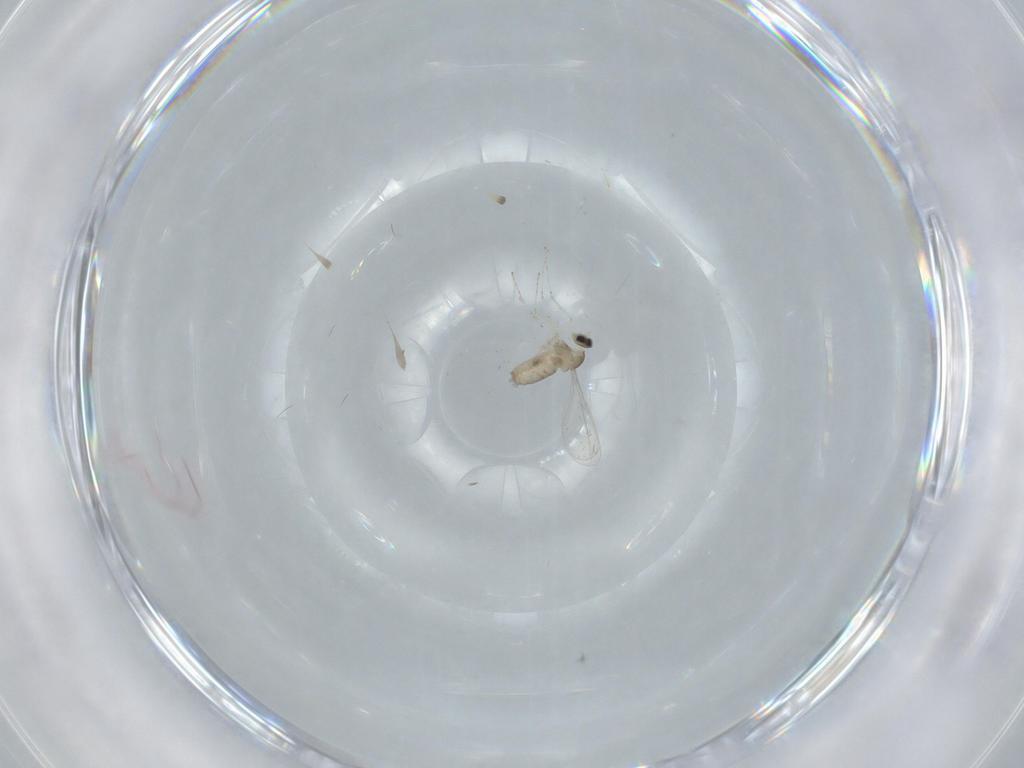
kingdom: Animalia
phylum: Arthropoda
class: Insecta
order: Diptera
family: Cecidomyiidae
